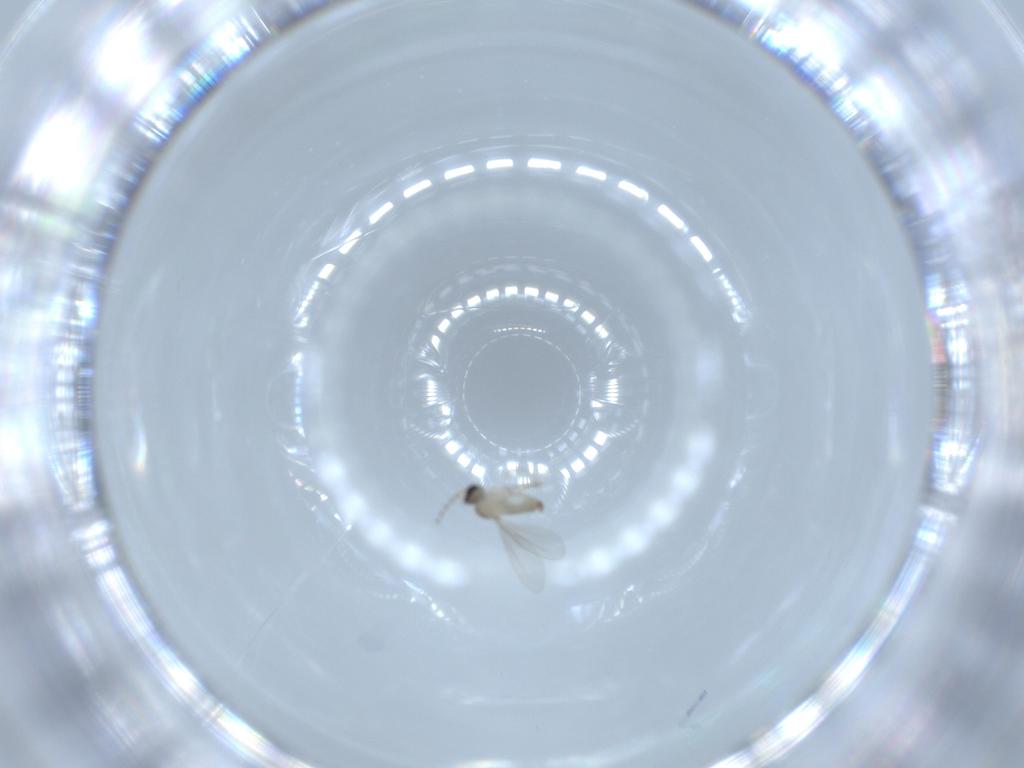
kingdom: Animalia
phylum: Arthropoda
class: Insecta
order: Diptera
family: Cecidomyiidae
